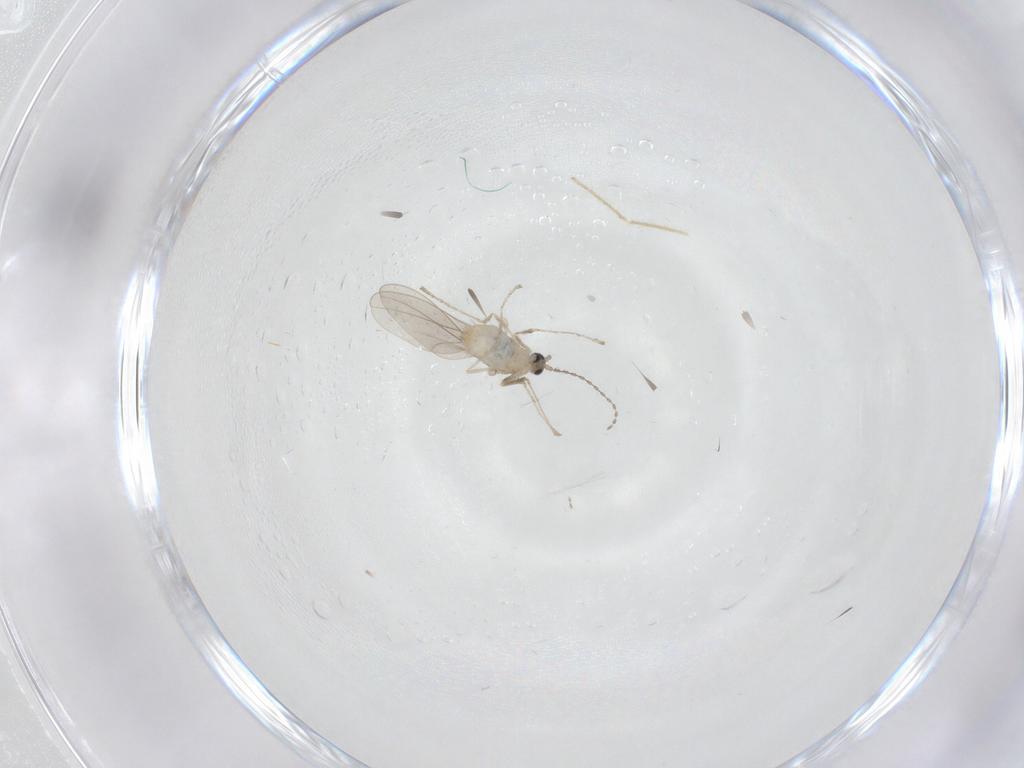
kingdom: Animalia
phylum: Arthropoda
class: Insecta
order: Diptera
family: Cecidomyiidae
